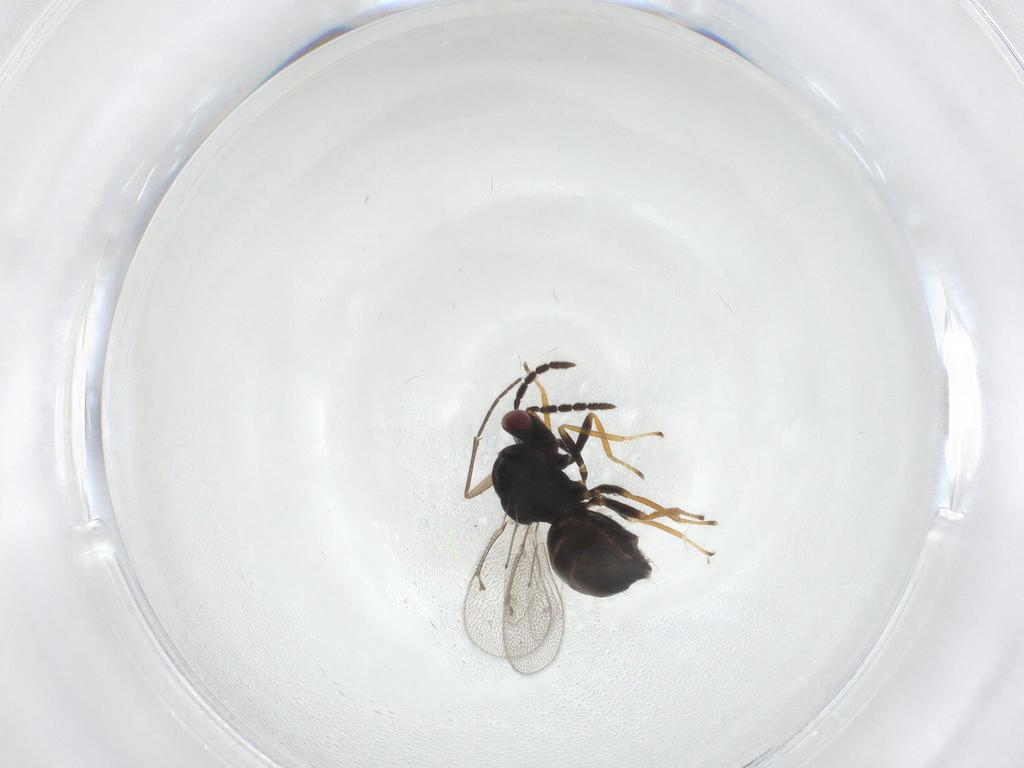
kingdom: Animalia
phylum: Arthropoda
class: Insecta
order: Hymenoptera
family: Eulophidae
